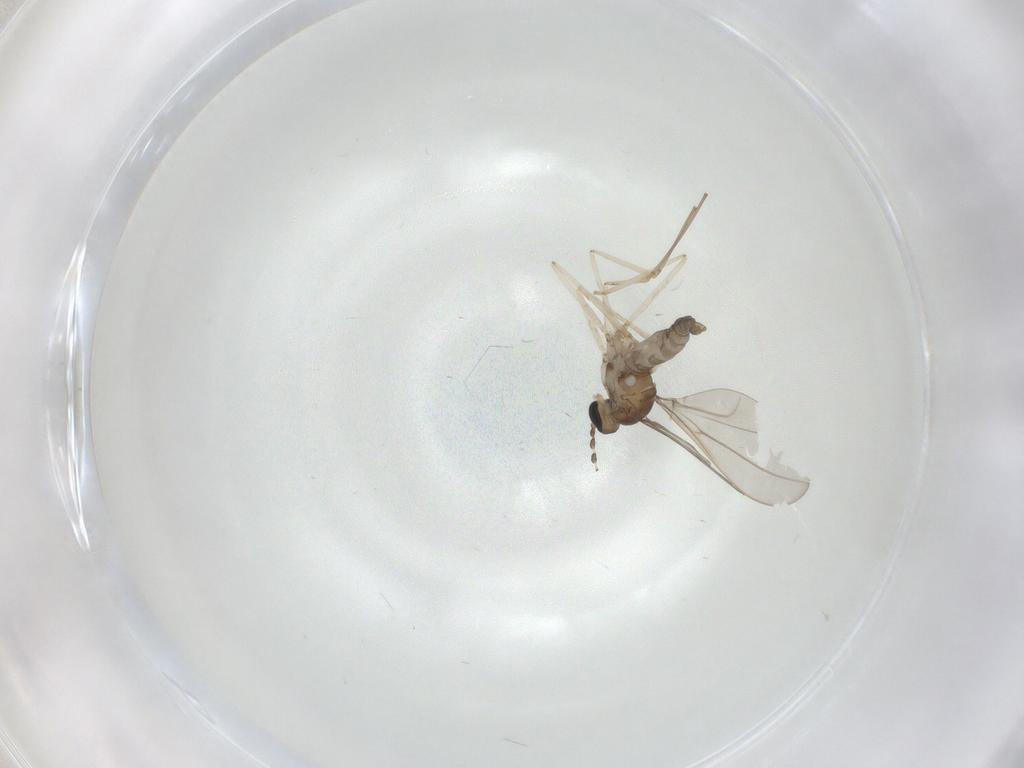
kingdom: Animalia
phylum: Arthropoda
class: Insecta
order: Diptera
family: Cecidomyiidae
